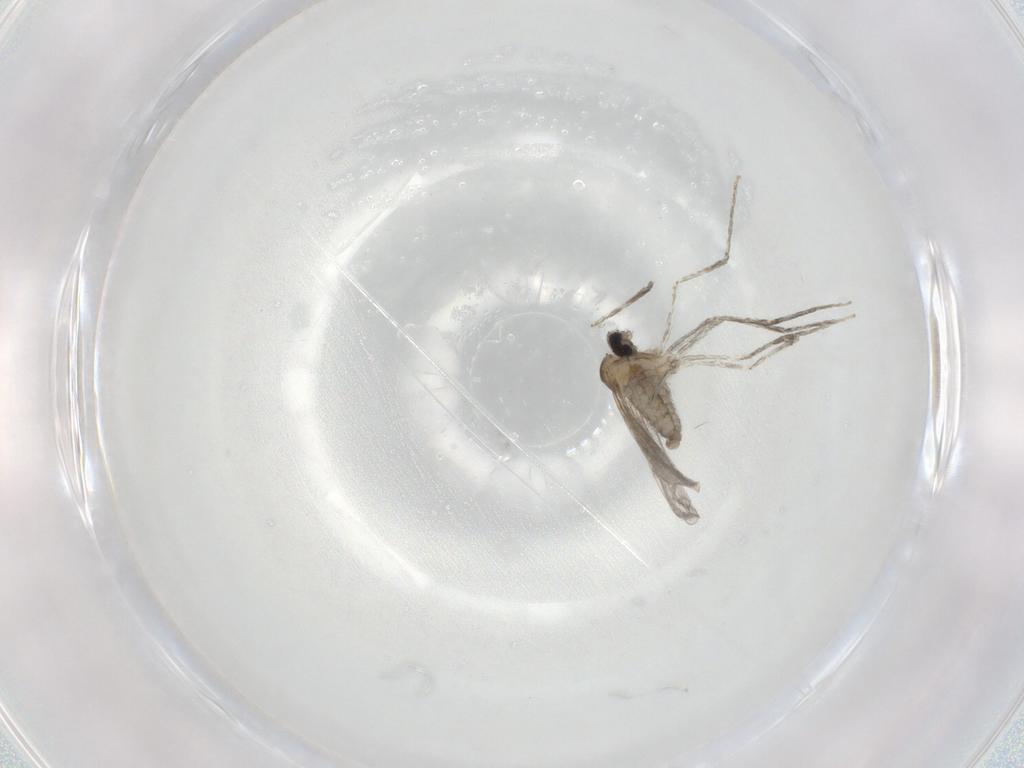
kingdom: Animalia
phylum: Arthropoda
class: Insecta
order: Diptera
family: Cecidomyiidae
